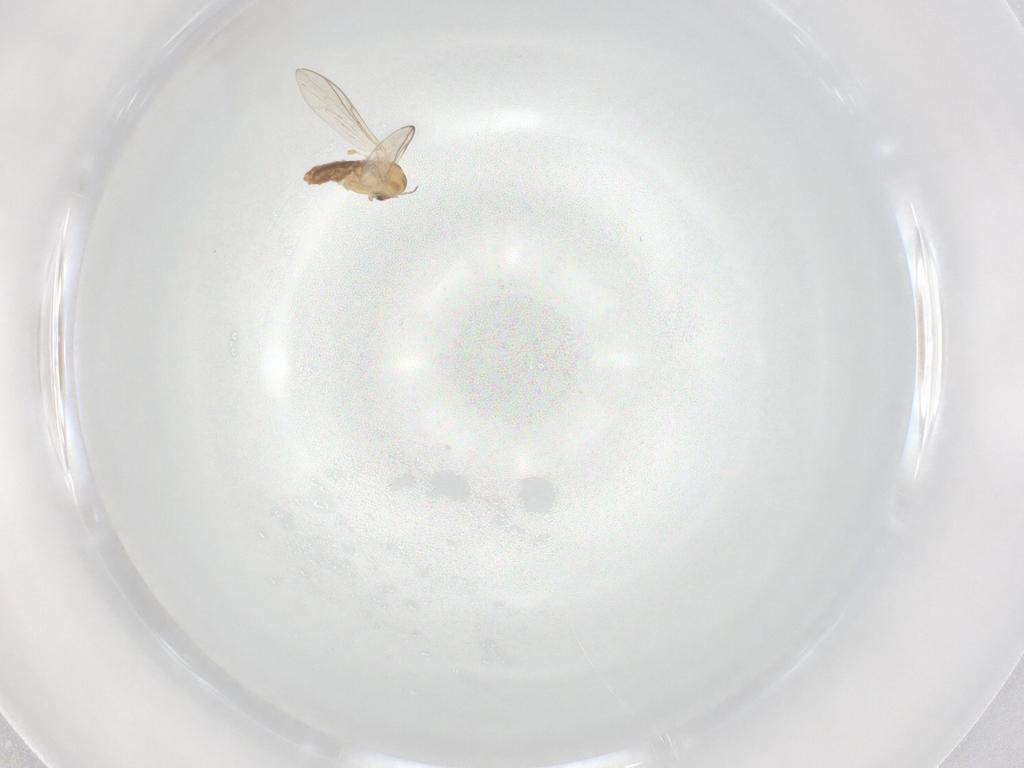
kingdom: Animalia
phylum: Arthropoda
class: Insecta
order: Diptera
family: Chironomidae
